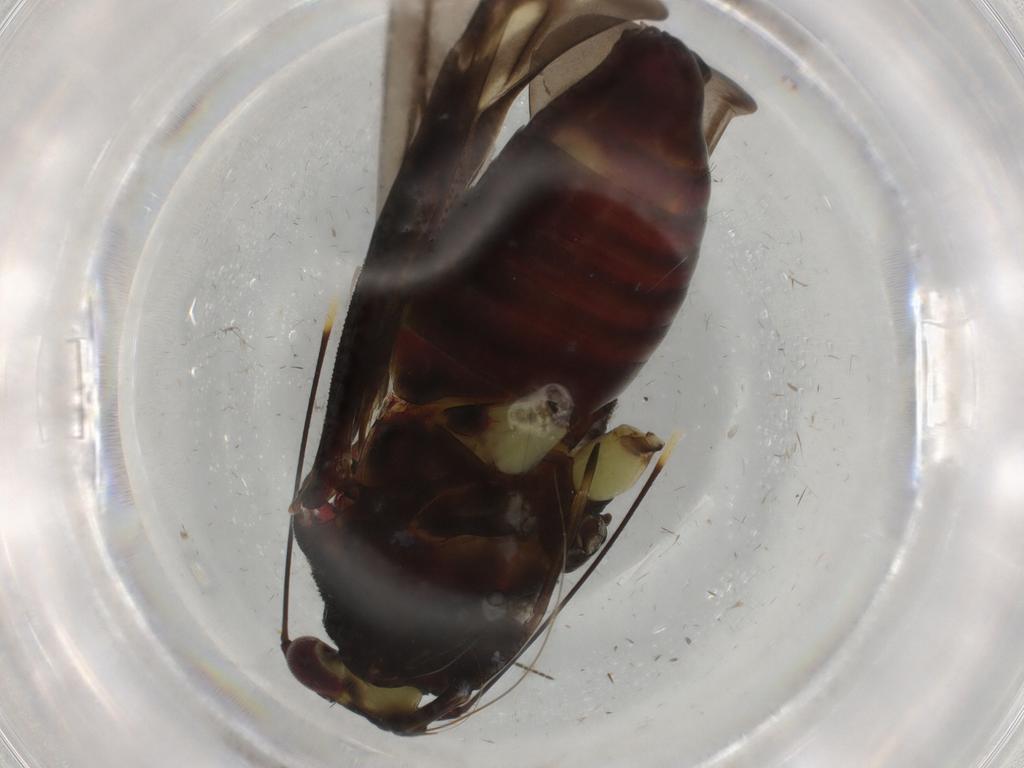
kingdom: Animalia
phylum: Arthropoda
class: Insecta
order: Hemiptera
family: Miridae
